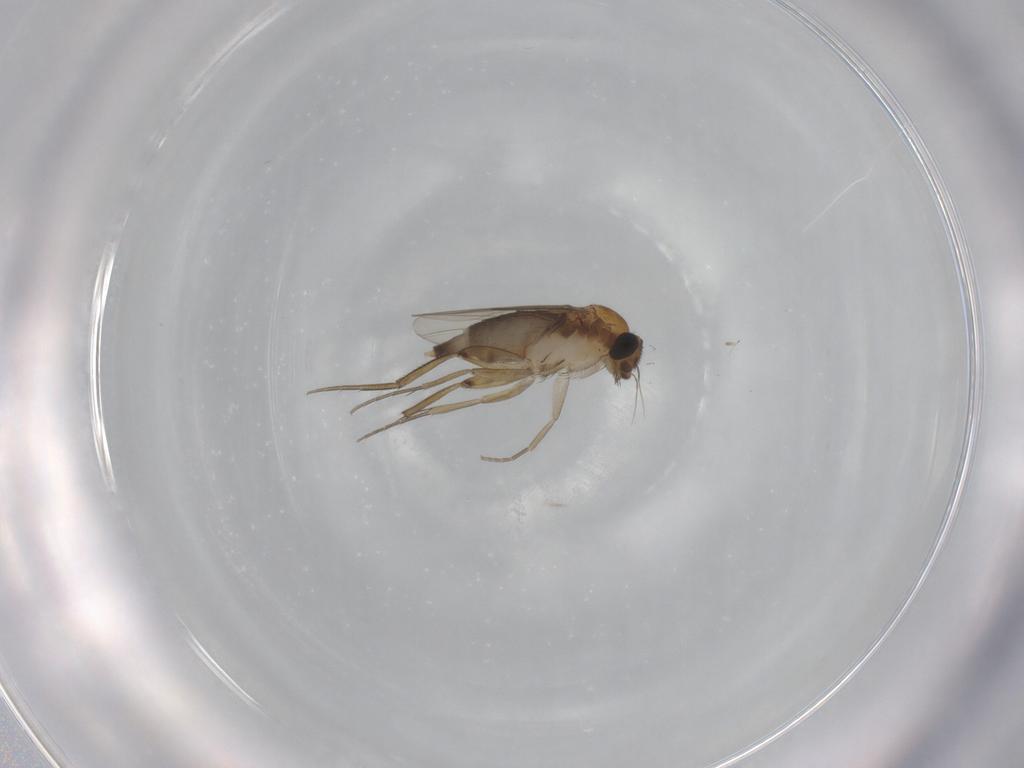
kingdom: Animalia
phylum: Arthropoda
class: Insecta
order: Diptera
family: Phoridae
